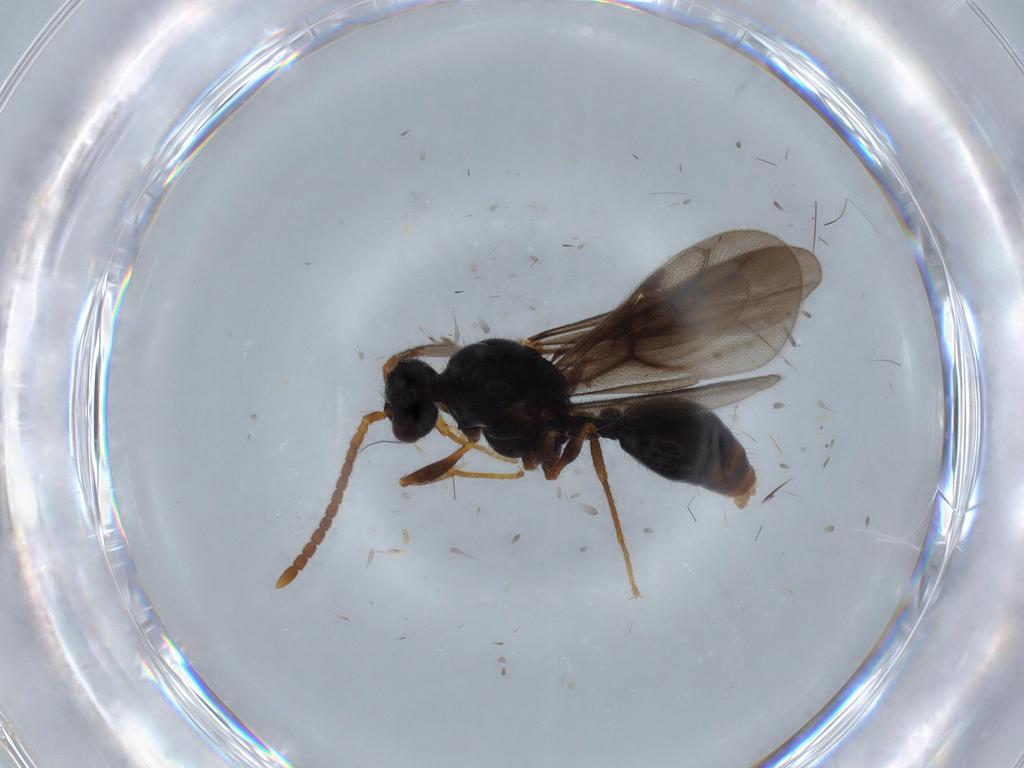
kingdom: Animalia
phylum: Arthropoda
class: Insecta
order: Hymenoptera
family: Formicidae
